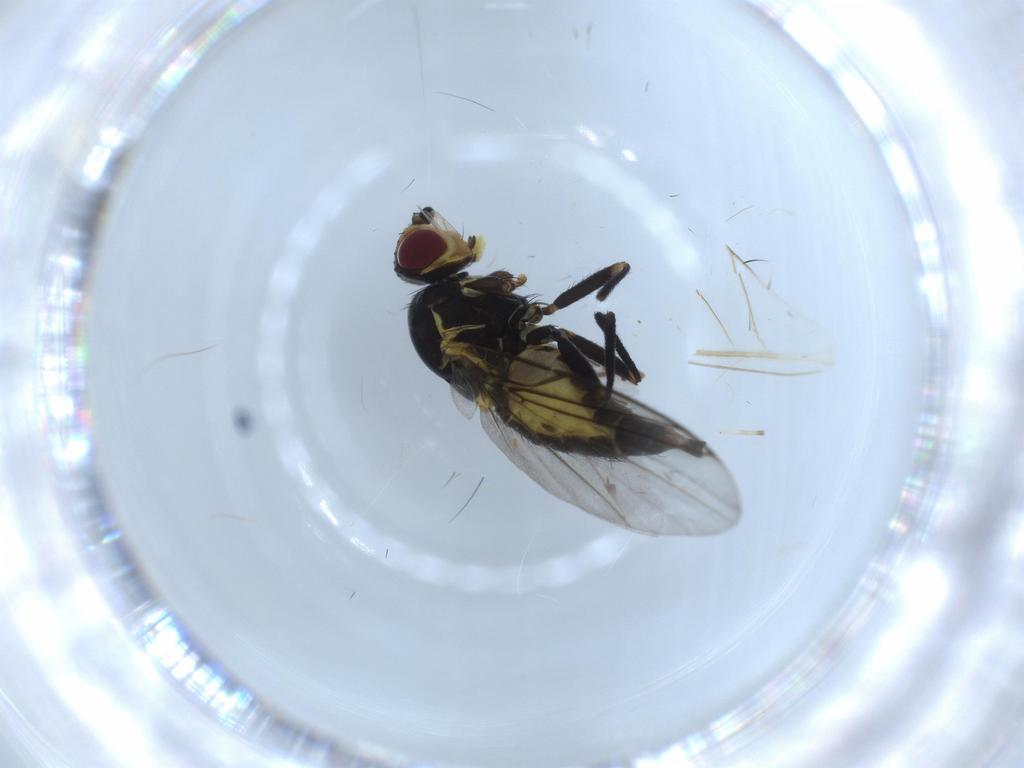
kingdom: Animalia
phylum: Arthropoda
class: Insecta
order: Diptera
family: Agromyzidae
